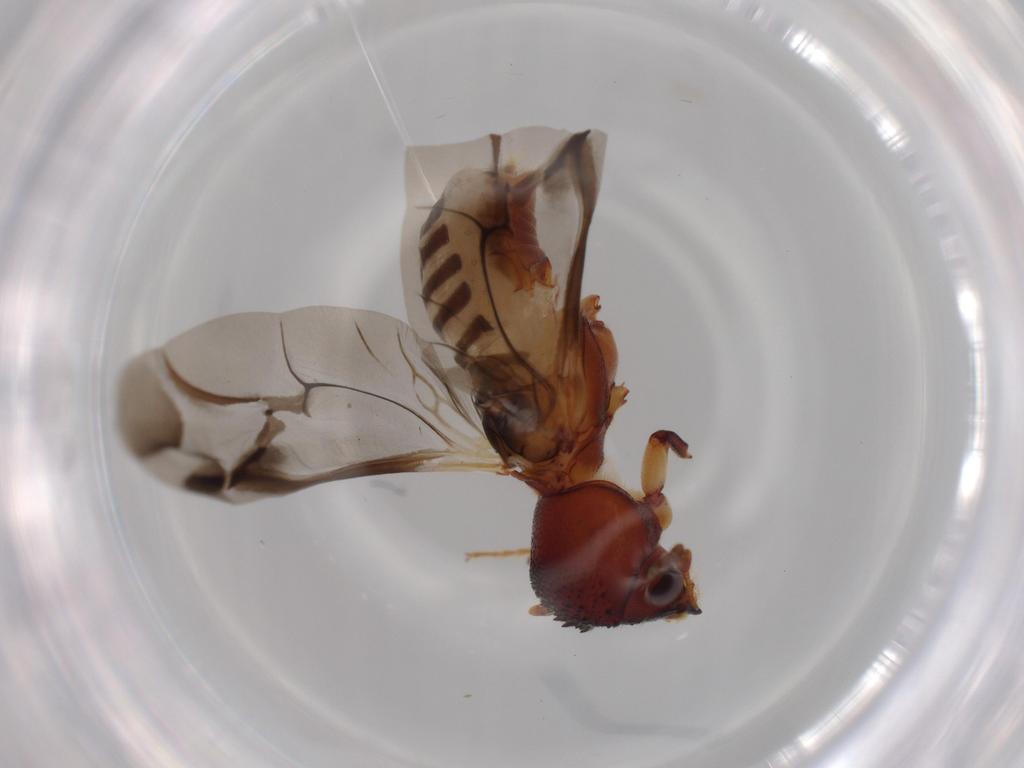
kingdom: Animalia
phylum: Arthropoda
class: Insecta
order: Coleoptera
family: Bostrichidae
